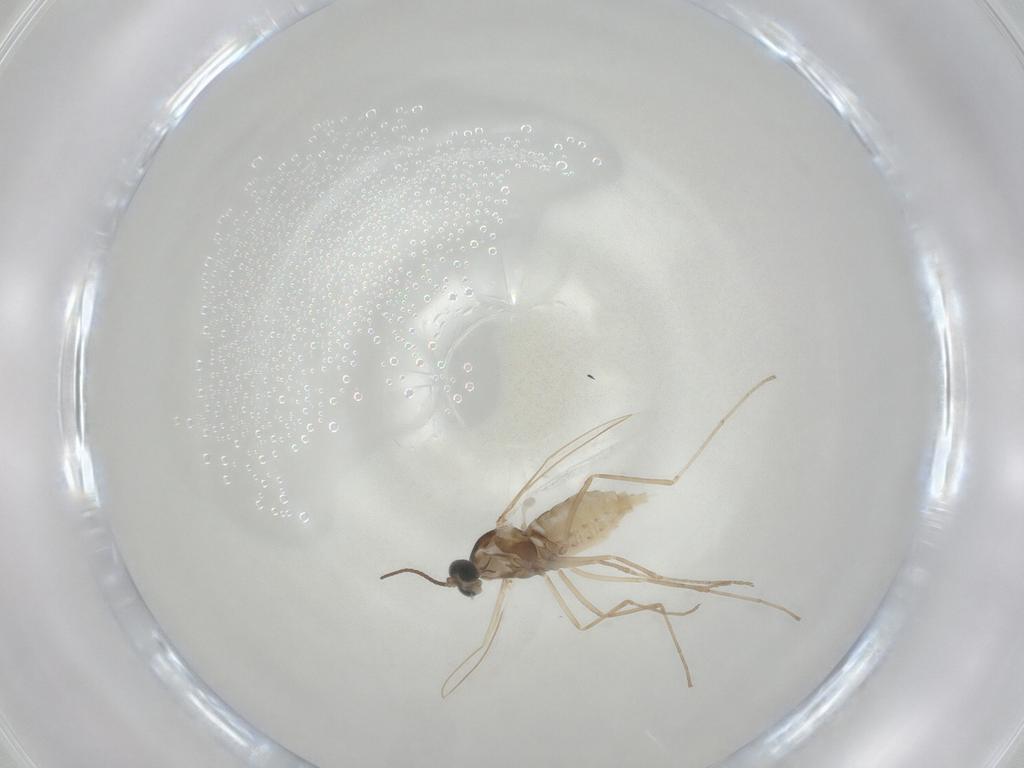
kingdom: Animalia
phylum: Arthropoda
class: Insecta
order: Diptera
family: Cecidomyiidae
